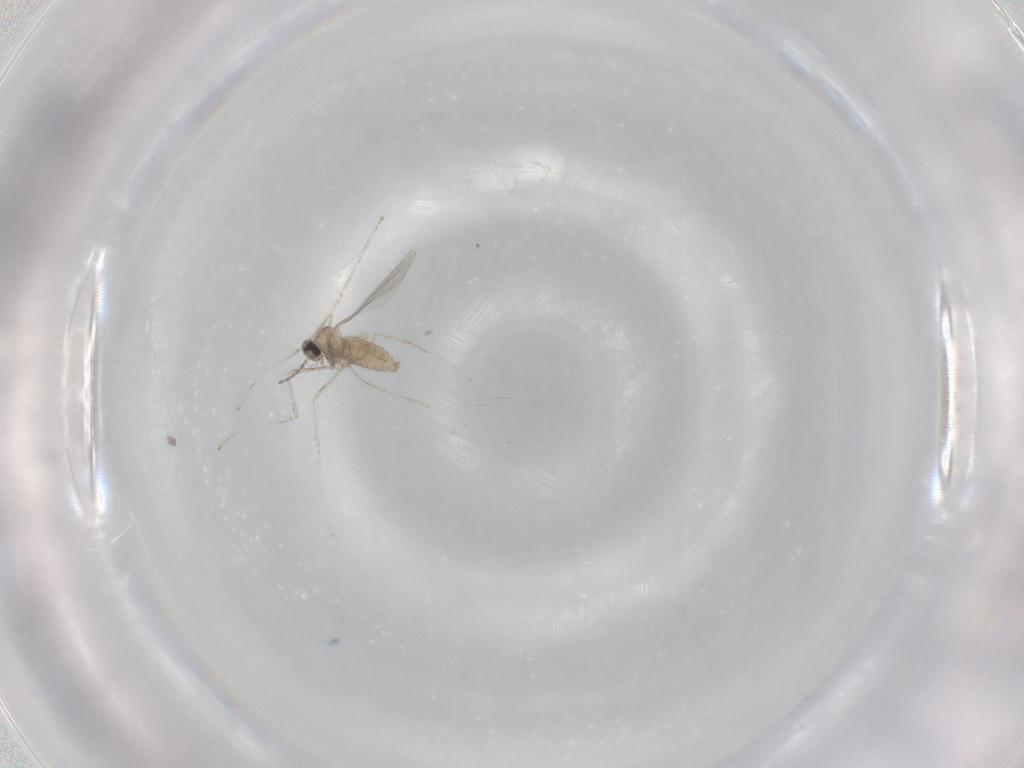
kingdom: Animalia
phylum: Arthropoda
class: Insecta
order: Diptera
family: Cecidomyiidae
